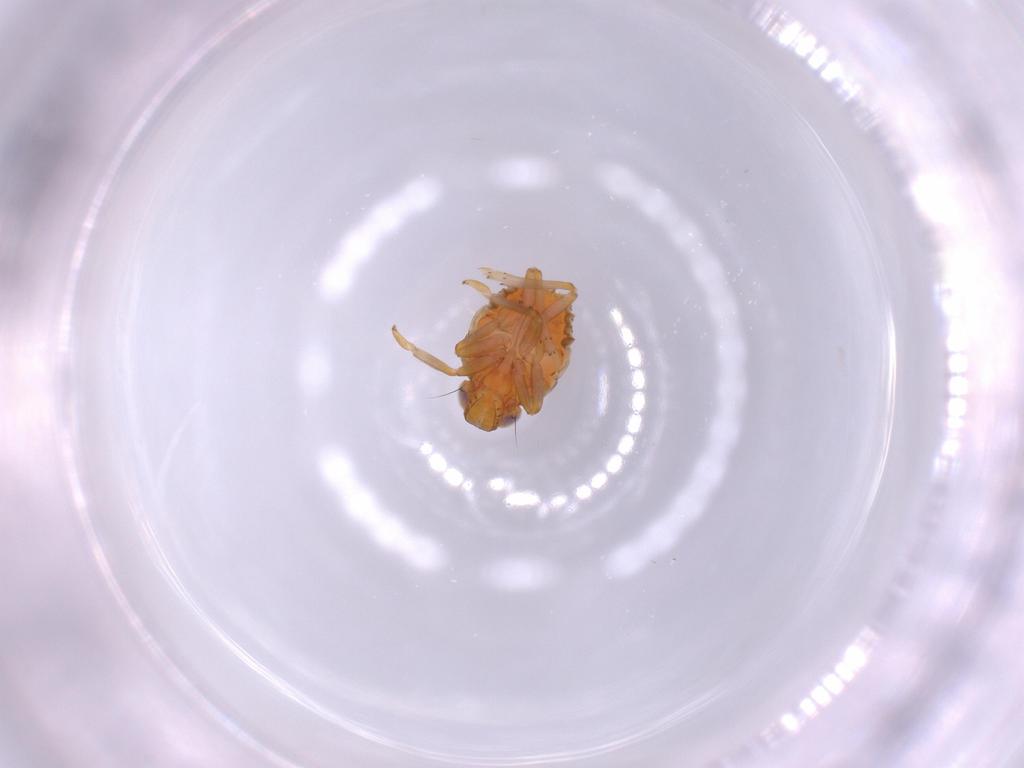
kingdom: Animalia
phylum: Arthropoda
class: Insecta
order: Hemiptera
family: Issidae
